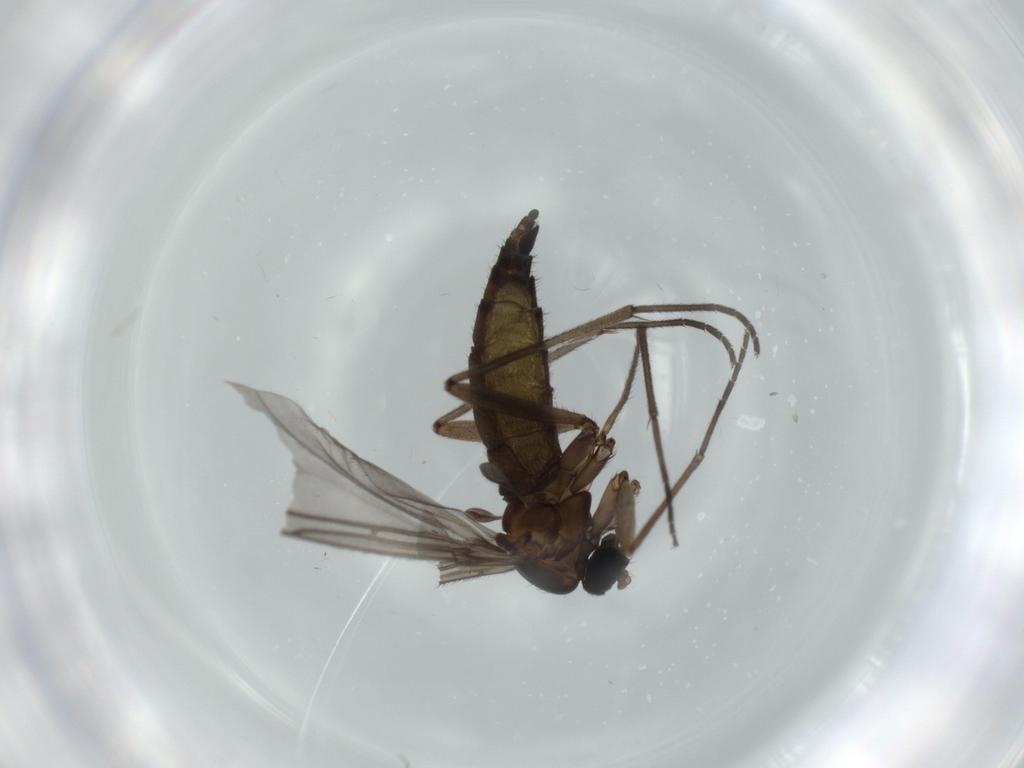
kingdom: Animalia
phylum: Arthropoda
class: Insecta
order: Diptera
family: Sciaridae
